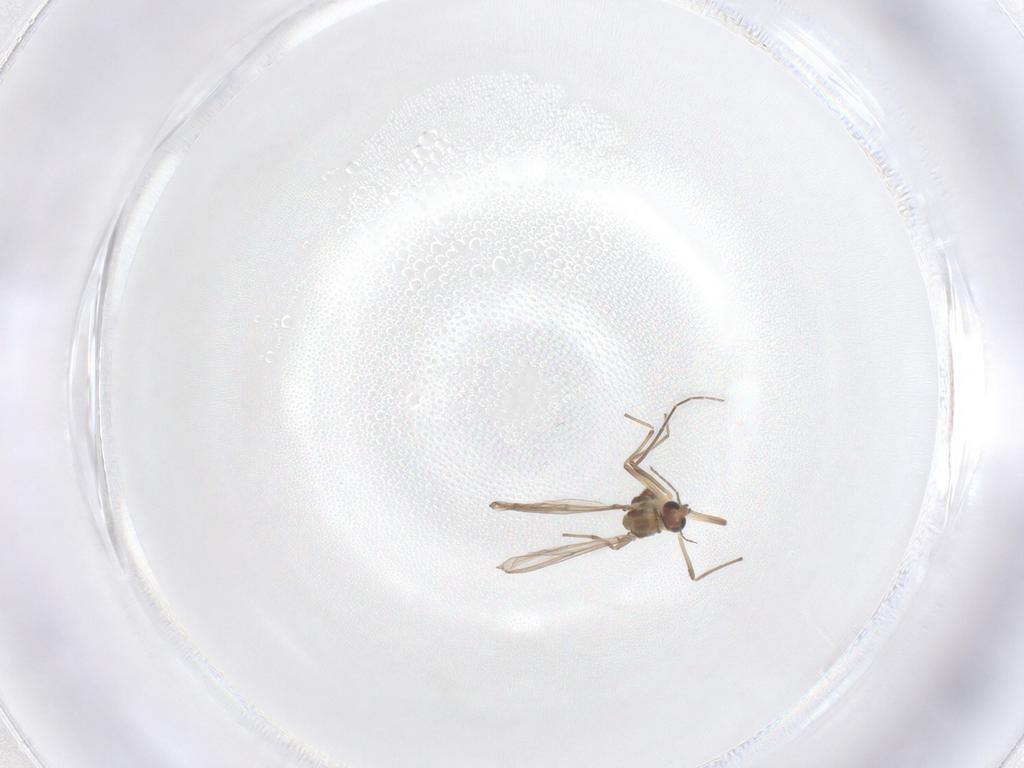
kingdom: Animalia
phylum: Arthropoda
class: Insecta
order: Diptera
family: Chironomidae
